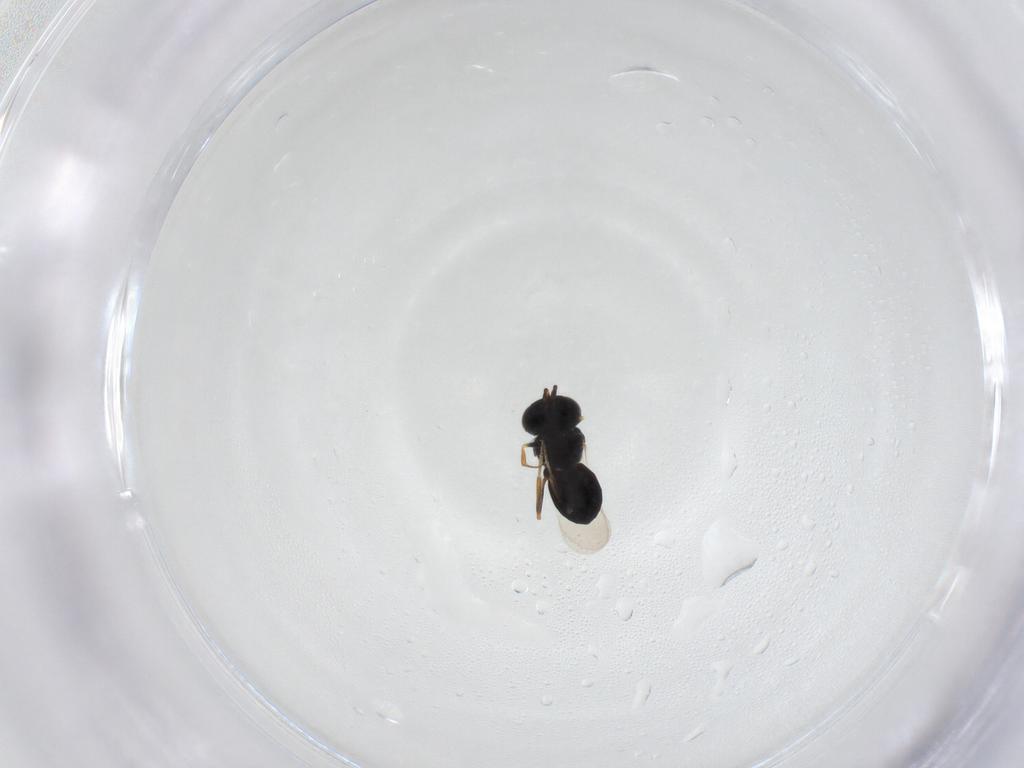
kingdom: Animalia
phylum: Arthropoda
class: Insecta
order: Hymenoptera
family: Scelionidae
